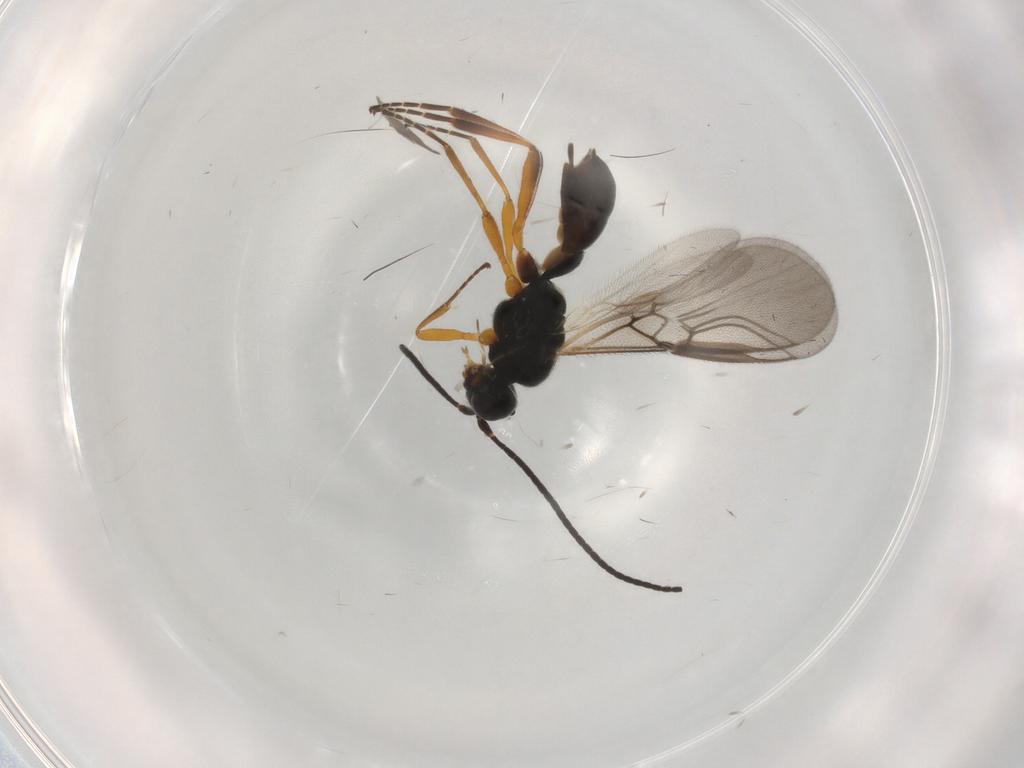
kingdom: Animalia
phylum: Arthropoda
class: Insecta
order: Hymenoptera
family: Braconidae
